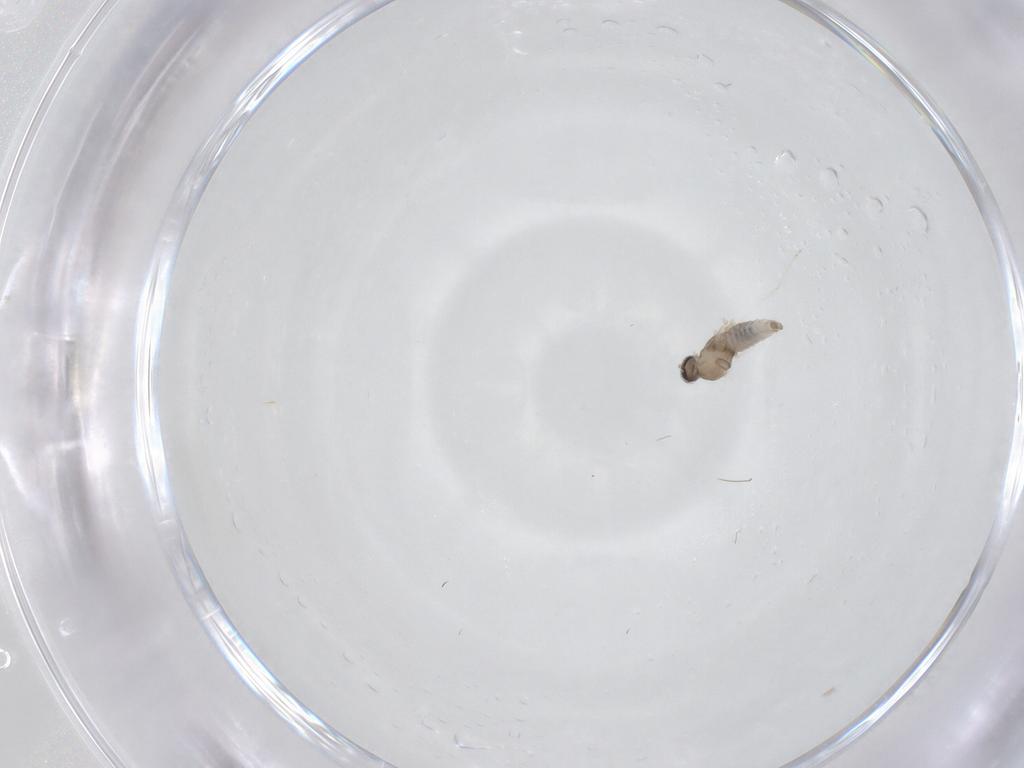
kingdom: Animalia
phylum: Arthropoda
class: Insecta
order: Diptera
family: Cecidomyiidae
